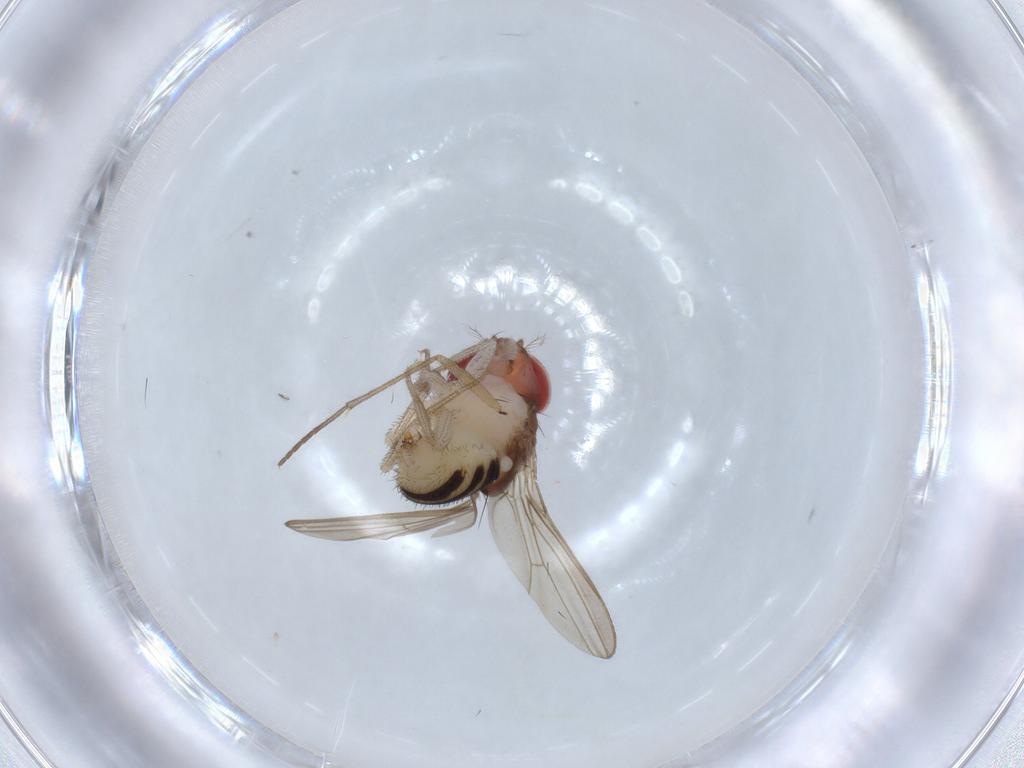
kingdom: Animalia
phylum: Arthropoda
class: Insecta
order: Diptera
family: Drosophilidae
